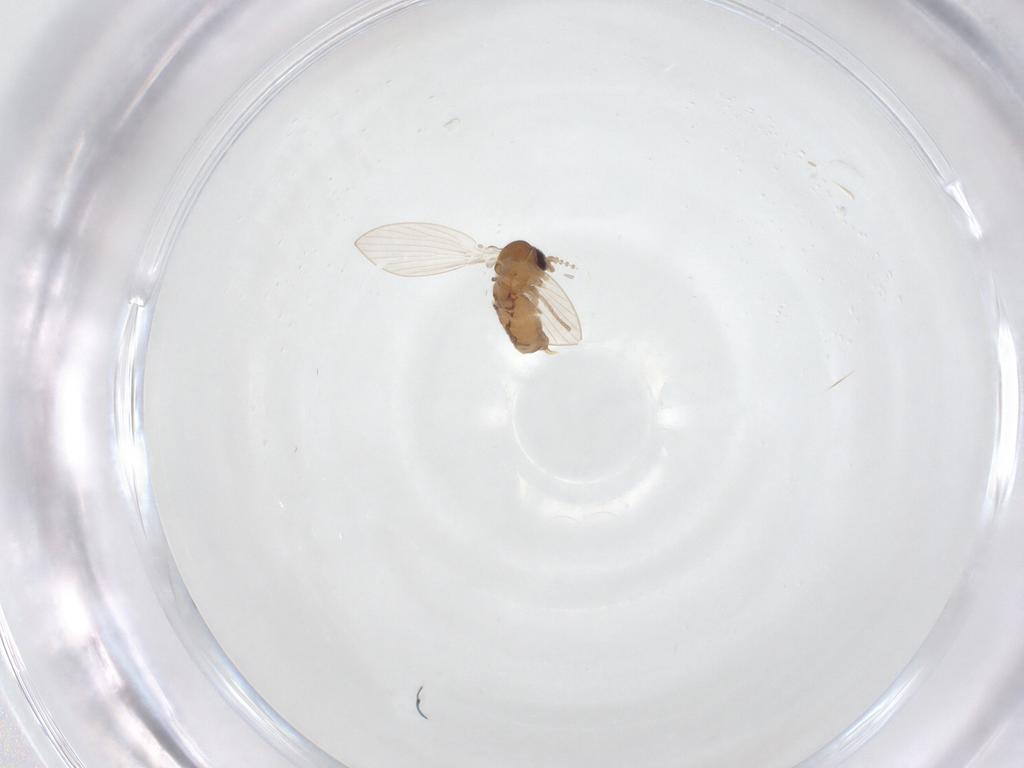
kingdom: Animalia
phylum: Arthropoda
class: Insecta
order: Diptera
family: Psychodidae
